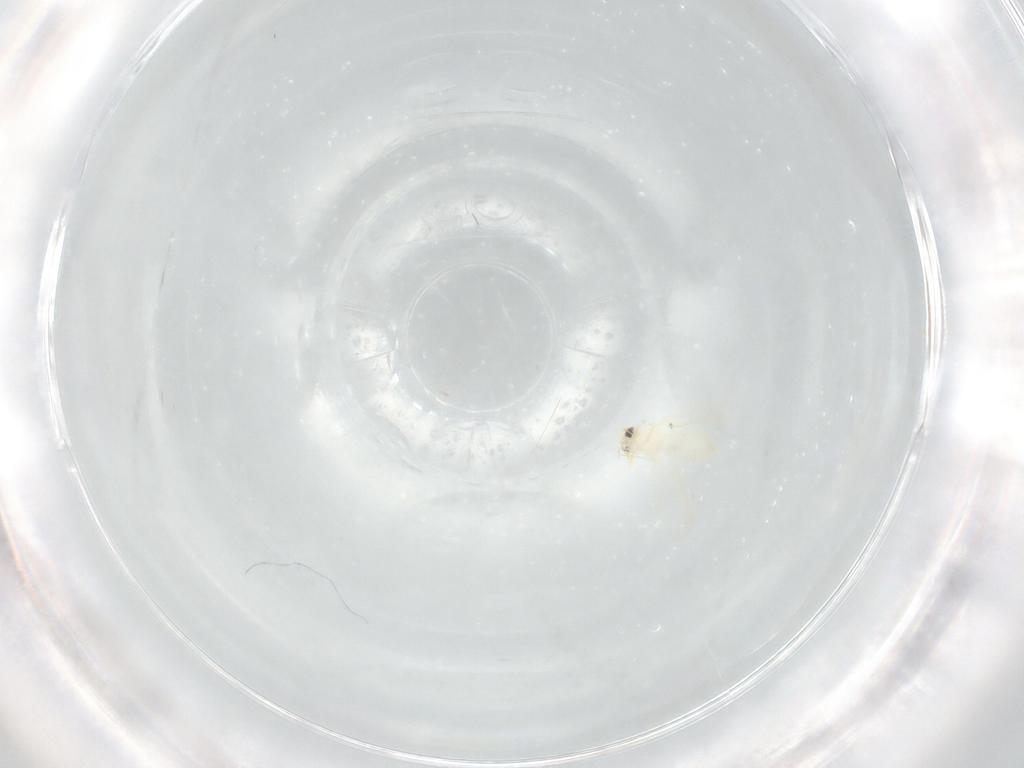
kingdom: Animalia
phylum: Arthropoda
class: Insecta
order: Hemiptera
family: Aleyrodidae
